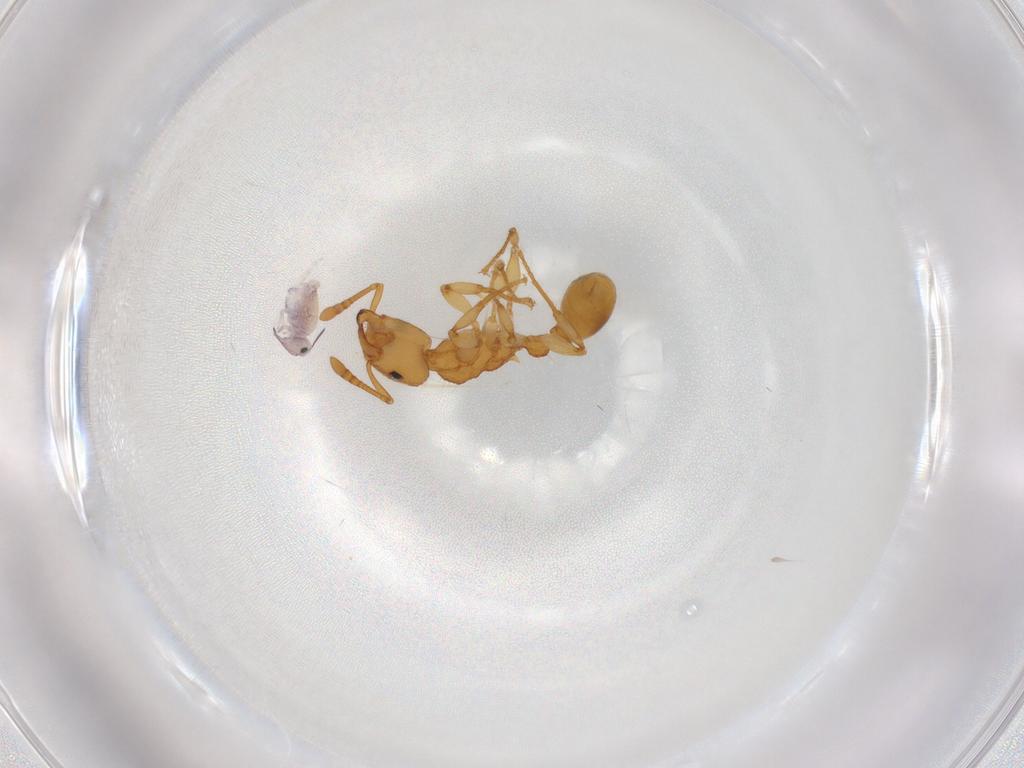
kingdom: Animalia
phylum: Arthropoda
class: Insecta
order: Hymenoptera
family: Formicidae
